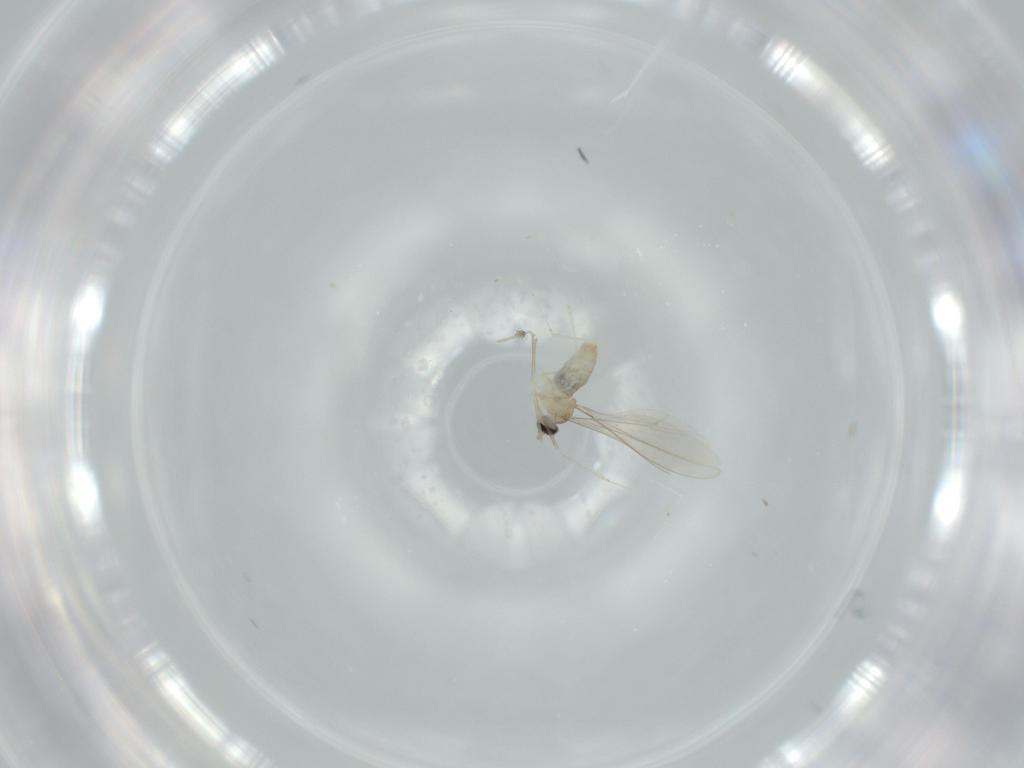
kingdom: Animalia
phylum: Arthropoda
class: Insecta
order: Diptera
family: Cecidomyiidae
